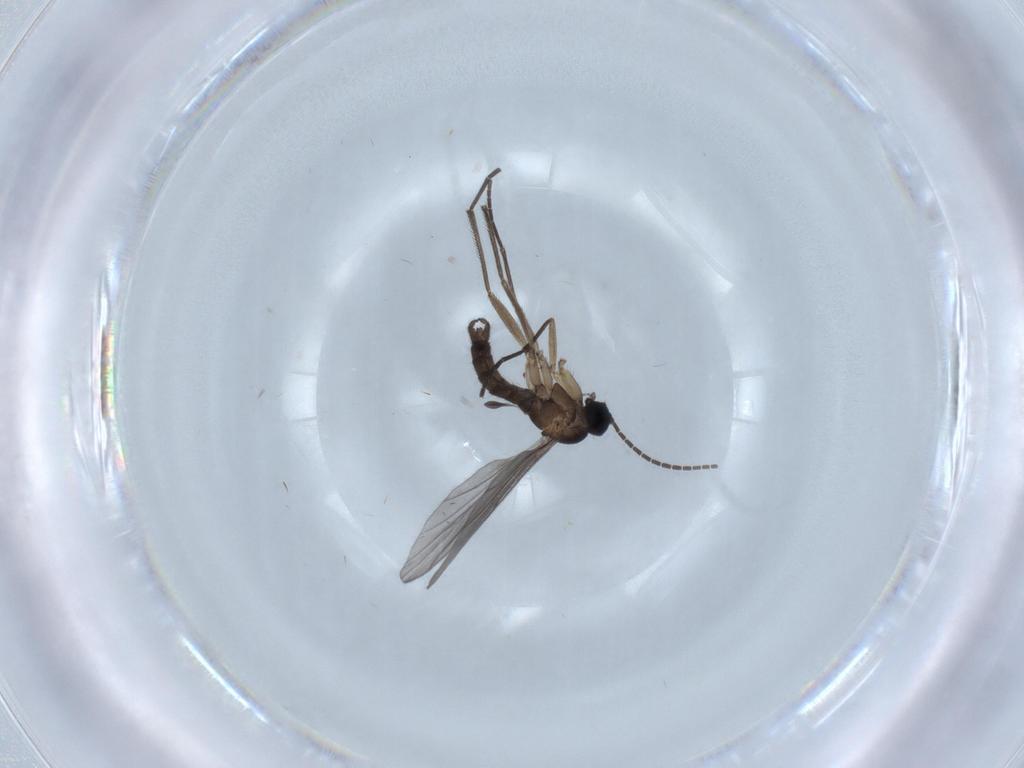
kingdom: Animalia
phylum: Arthropoda
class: Insecta
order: Diptera
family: Sciaridae
